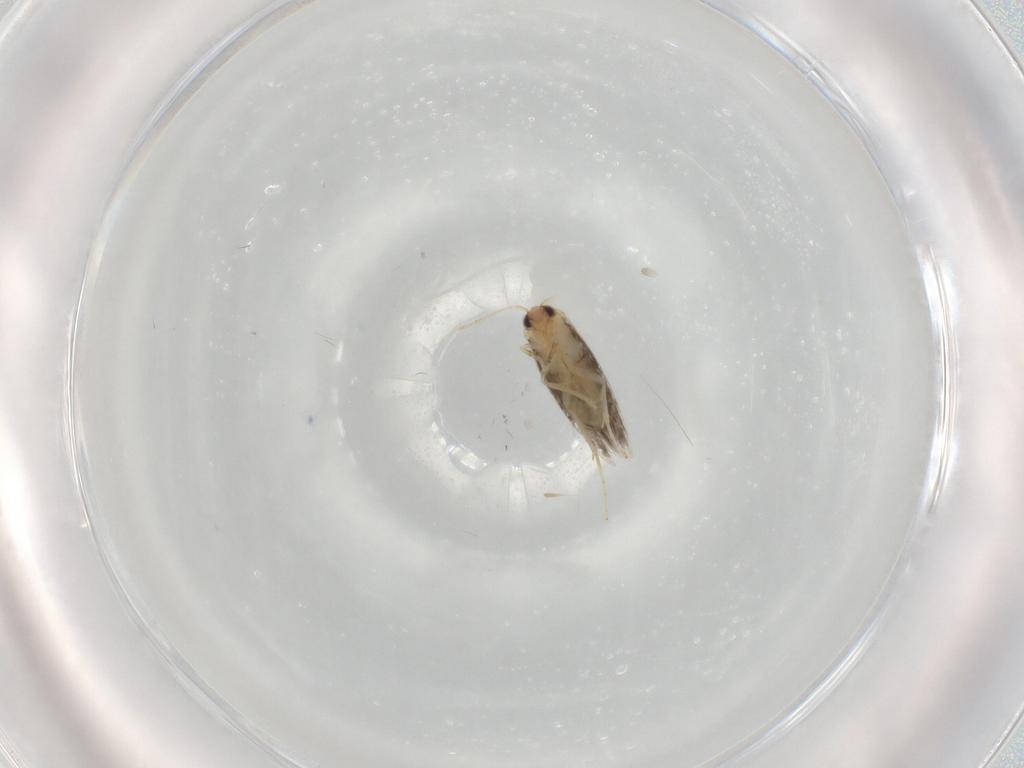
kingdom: Animalia
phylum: Arthropoda
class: Insecta
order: Lepidoptera
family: Nepticulidae
